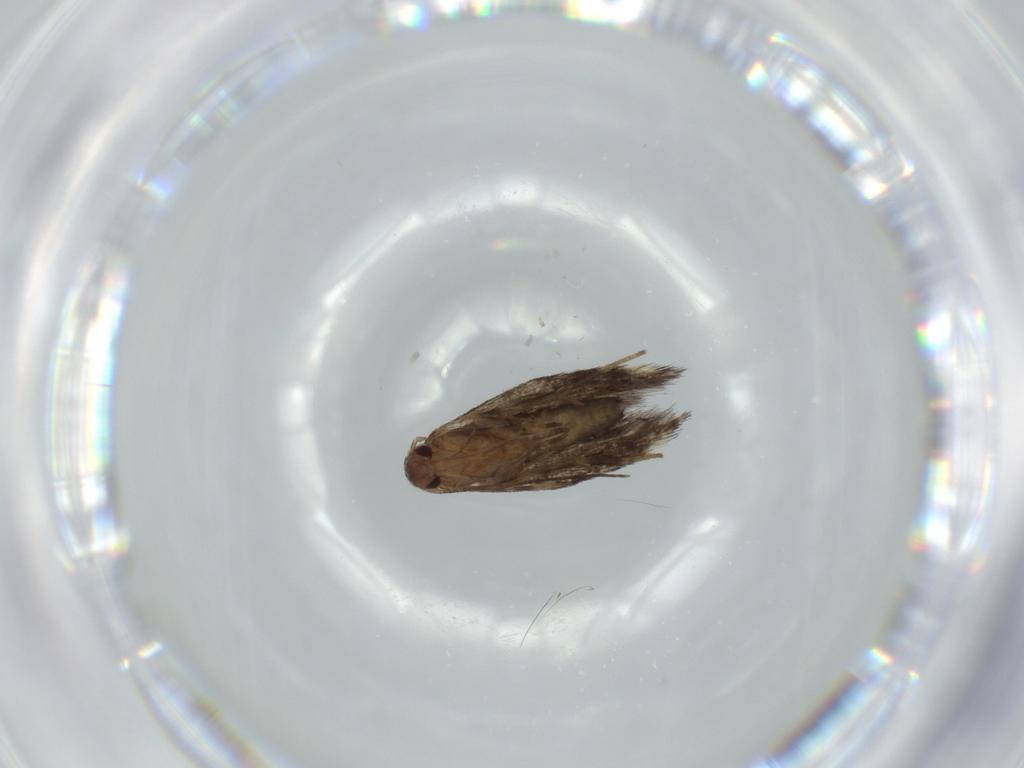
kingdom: Animalia
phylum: Arthropoda
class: Insecta
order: Lepidoptera
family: Cosmopterigidae
